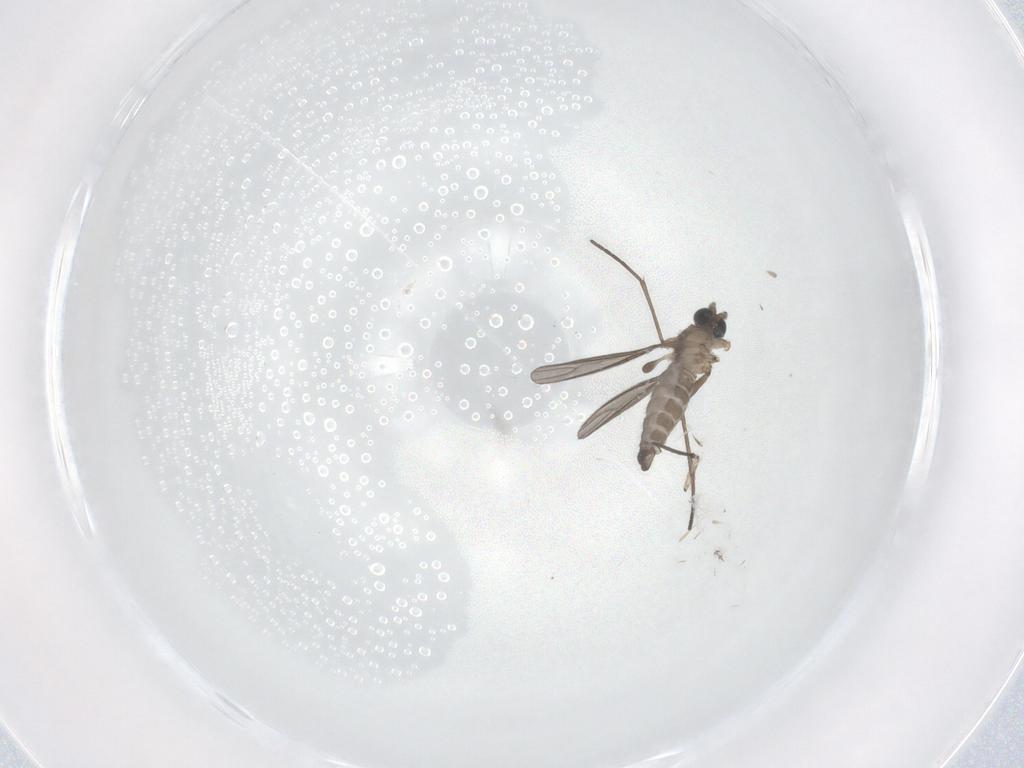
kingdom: Animalia
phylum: Arthropoda
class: Insecta
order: Diptera
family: Sciaridae
